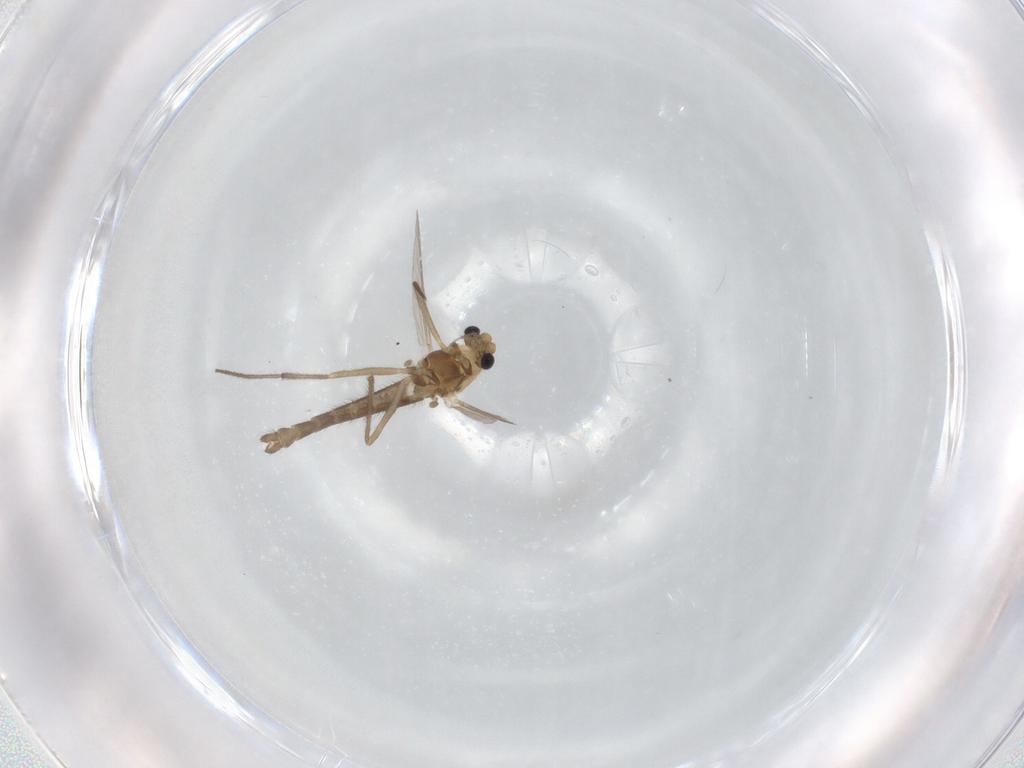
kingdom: Animalia
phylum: Arthropoda
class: Insecta
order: Diptera
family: Chironomidae
